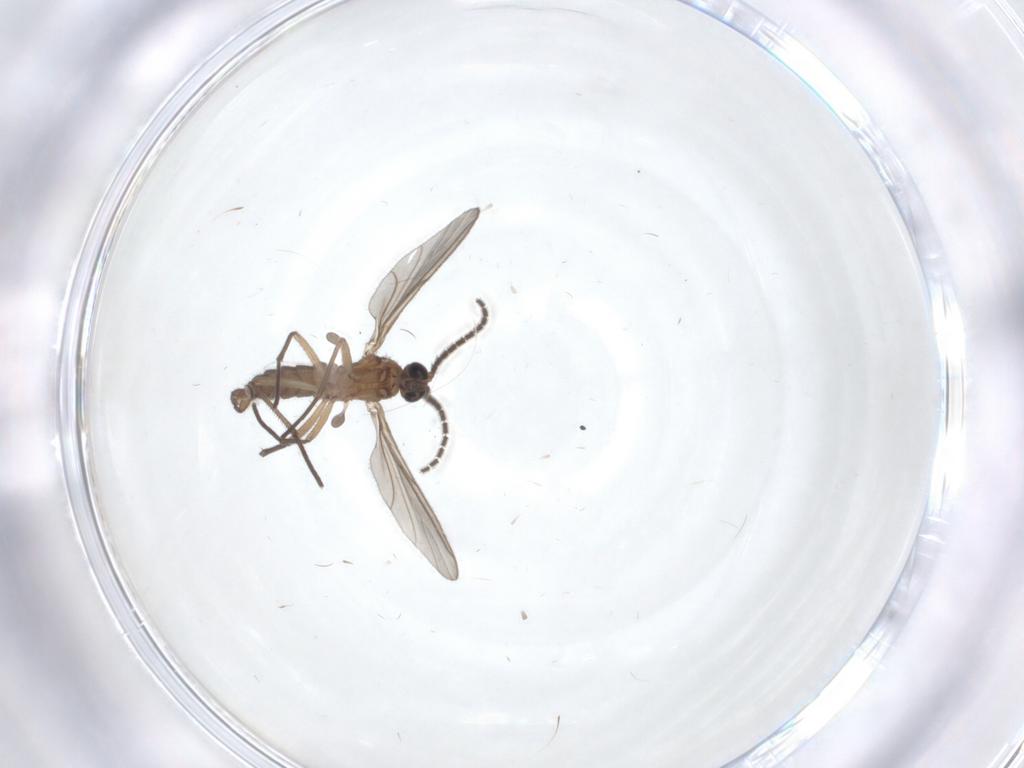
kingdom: Animalia
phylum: Arthropoda
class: Insecta
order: Diptera
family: Sciaridae
